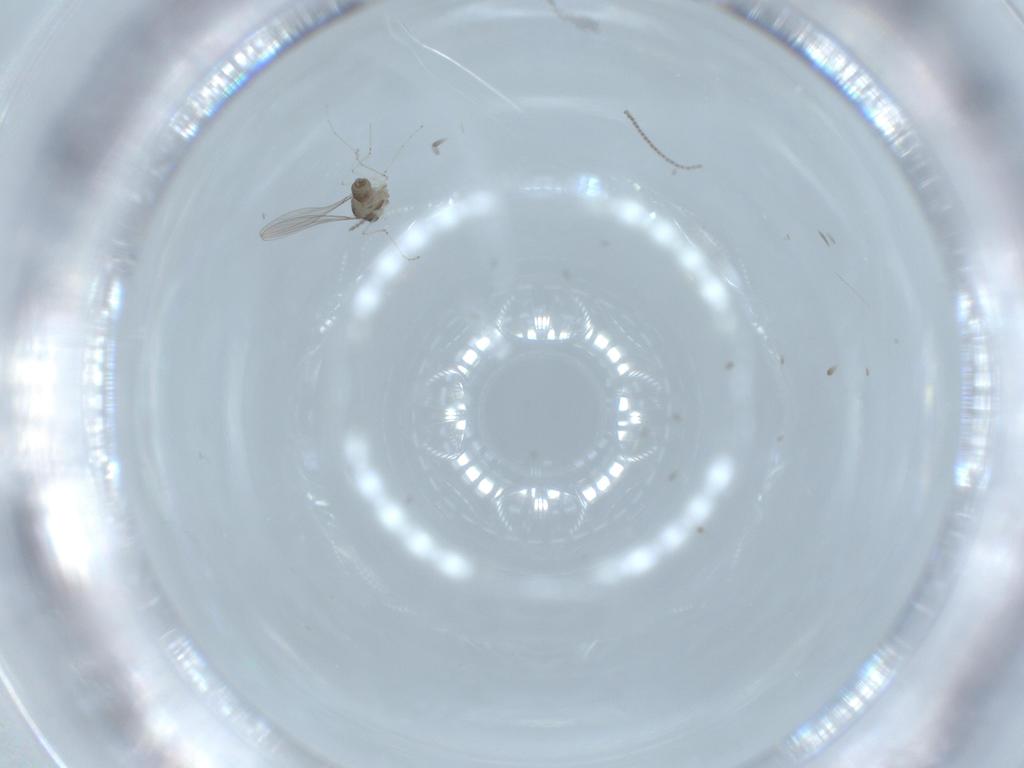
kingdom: Animalia
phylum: Arthropoda
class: Insecta
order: Diptera
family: Cecidomyiidae
